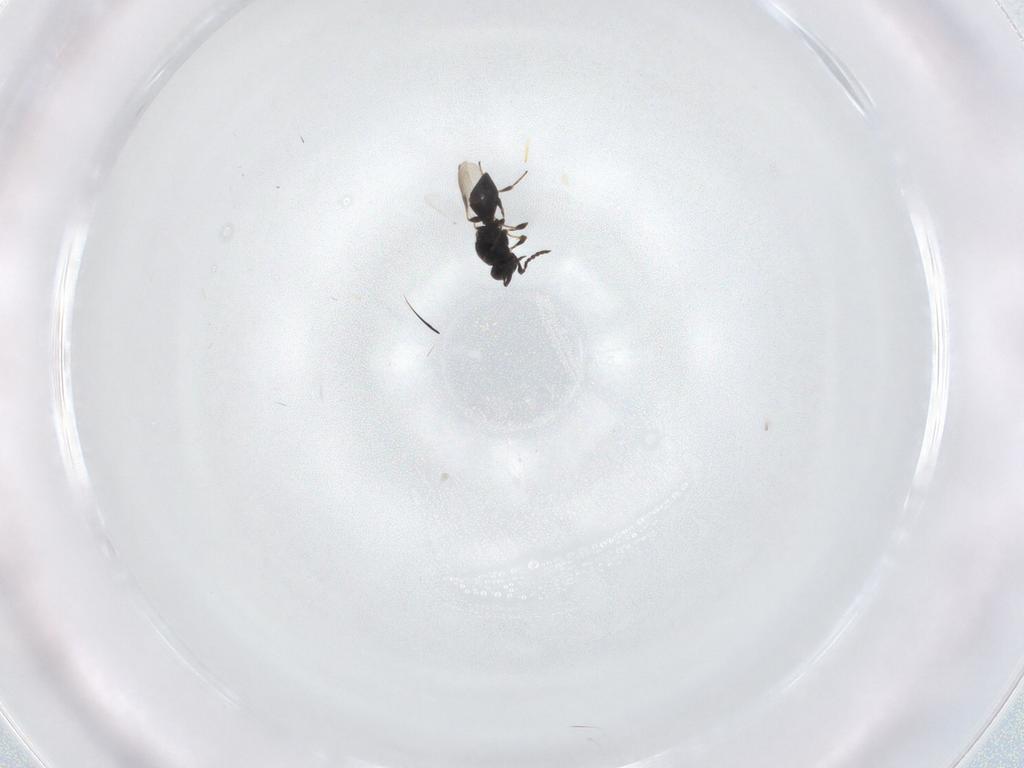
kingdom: Animalia
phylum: Arthropoda
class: Insecta
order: Hymenoptera
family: Platygastridae
